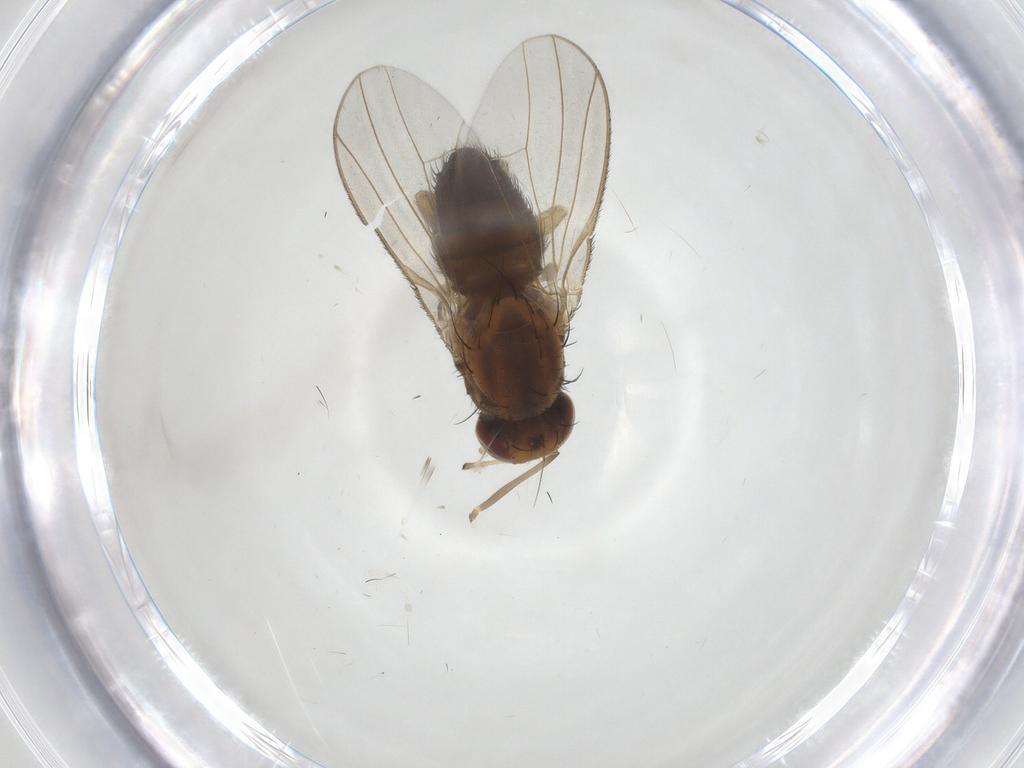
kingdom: Animalia
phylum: Arthropoda
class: Insecta
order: Diptera
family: Heleomyzidae
